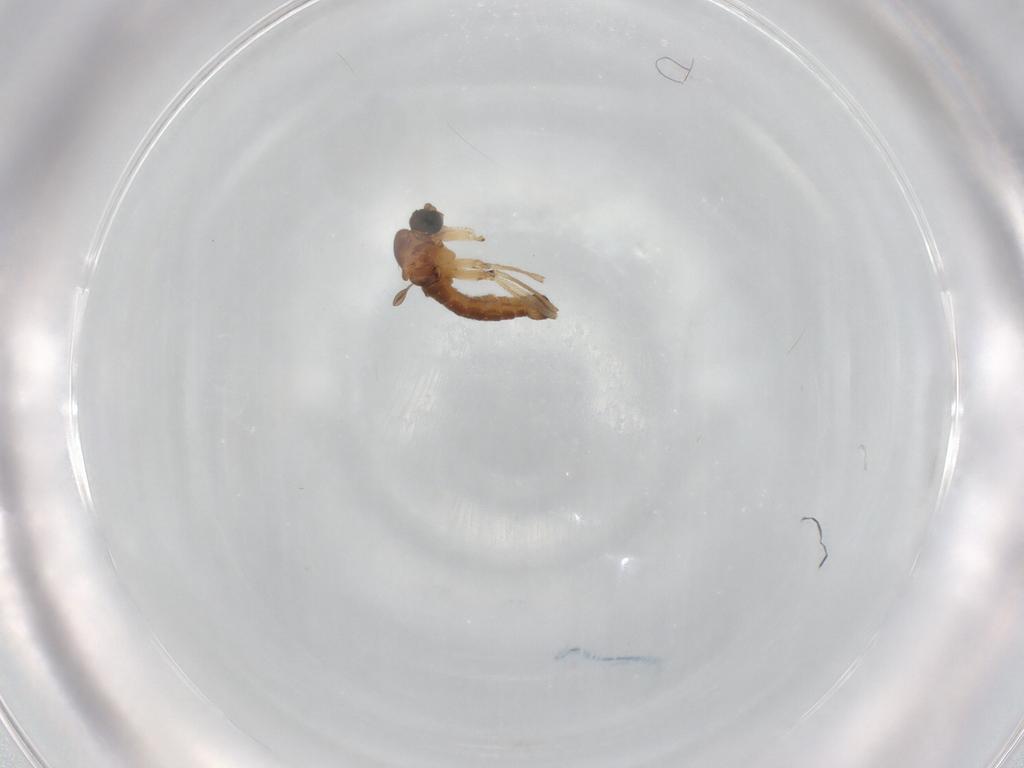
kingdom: Animalia
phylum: Arthropoda
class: Insecta
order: Diptera
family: Sciaridae
